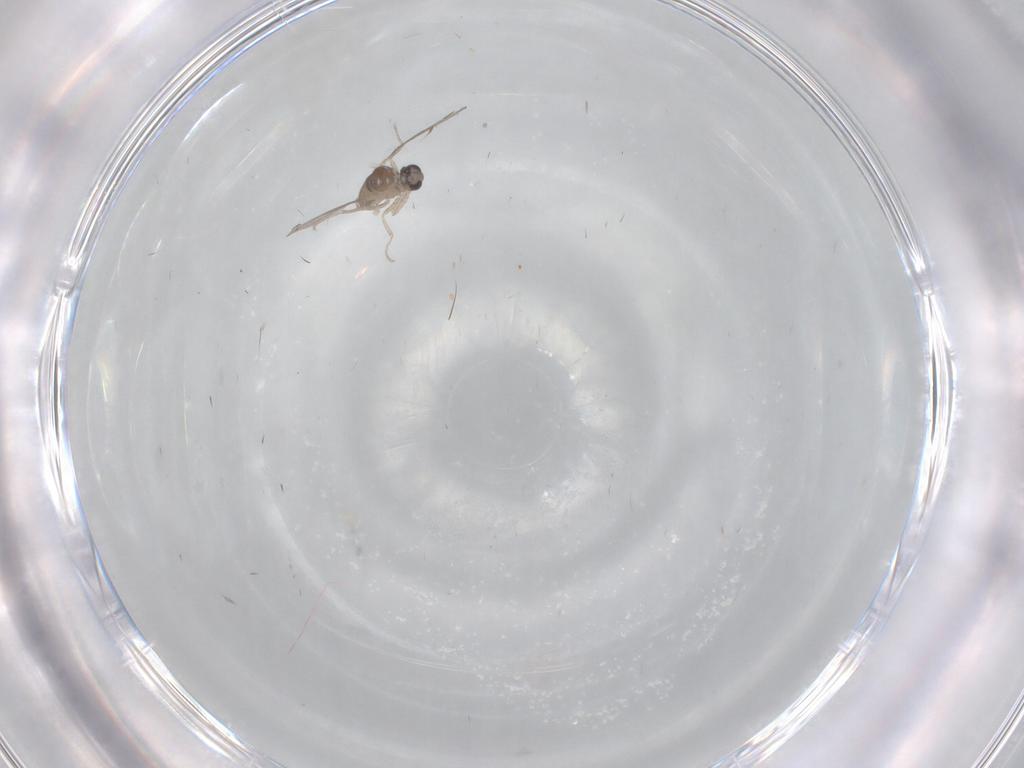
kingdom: Animalia
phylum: Arthropoda
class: Insecta
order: Diptera
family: Cecidomyiidae
